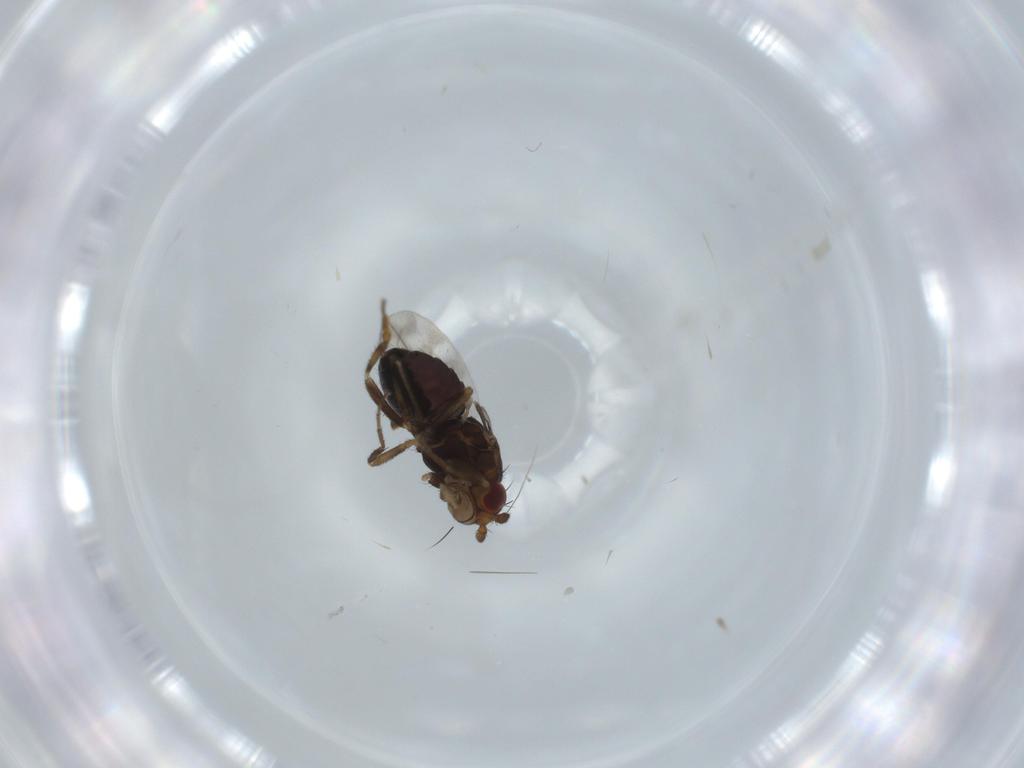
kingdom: Animalia
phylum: Arthropoda
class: Insecta
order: Diptera
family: Sphaeroceridae
